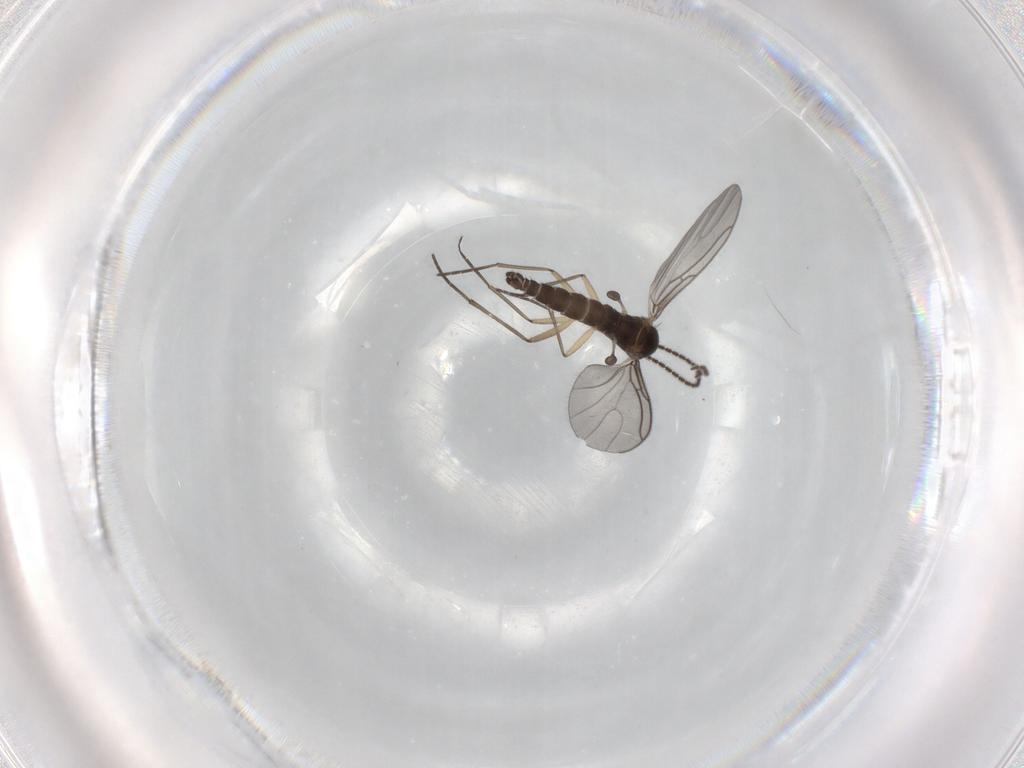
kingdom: Animalia
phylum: Arthropoda
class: Insecta
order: Diptera
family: Sciaridae
